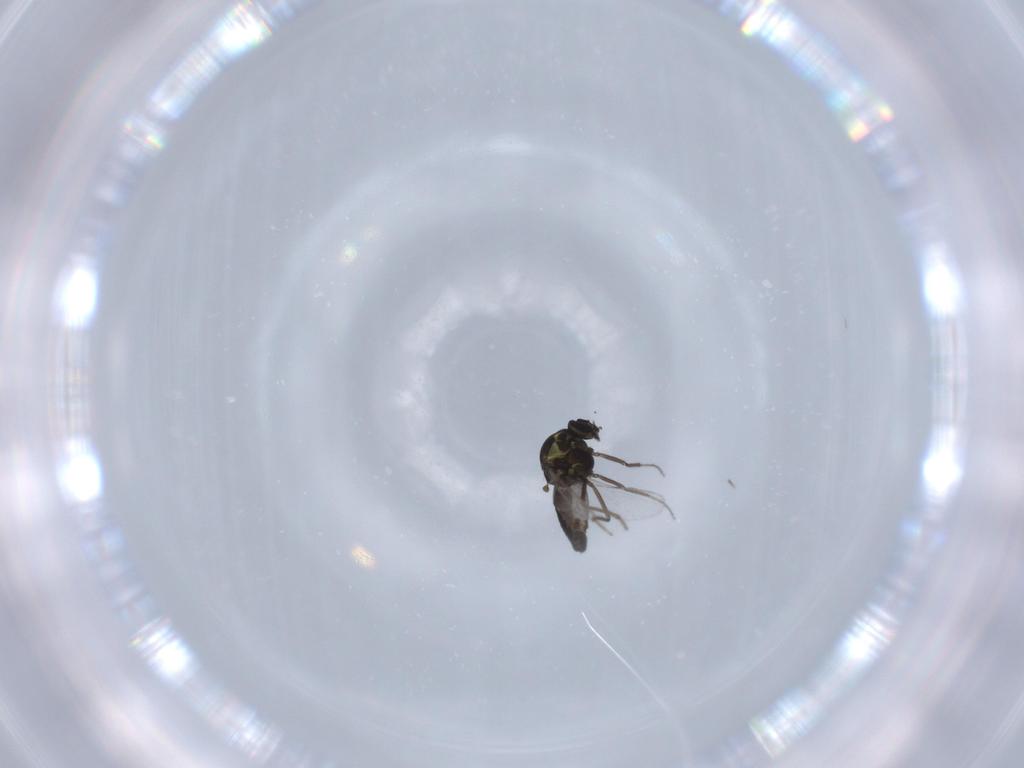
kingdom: Animalia
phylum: Arthropoda
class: Insecta
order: Diptera
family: Ceratopogonidae
